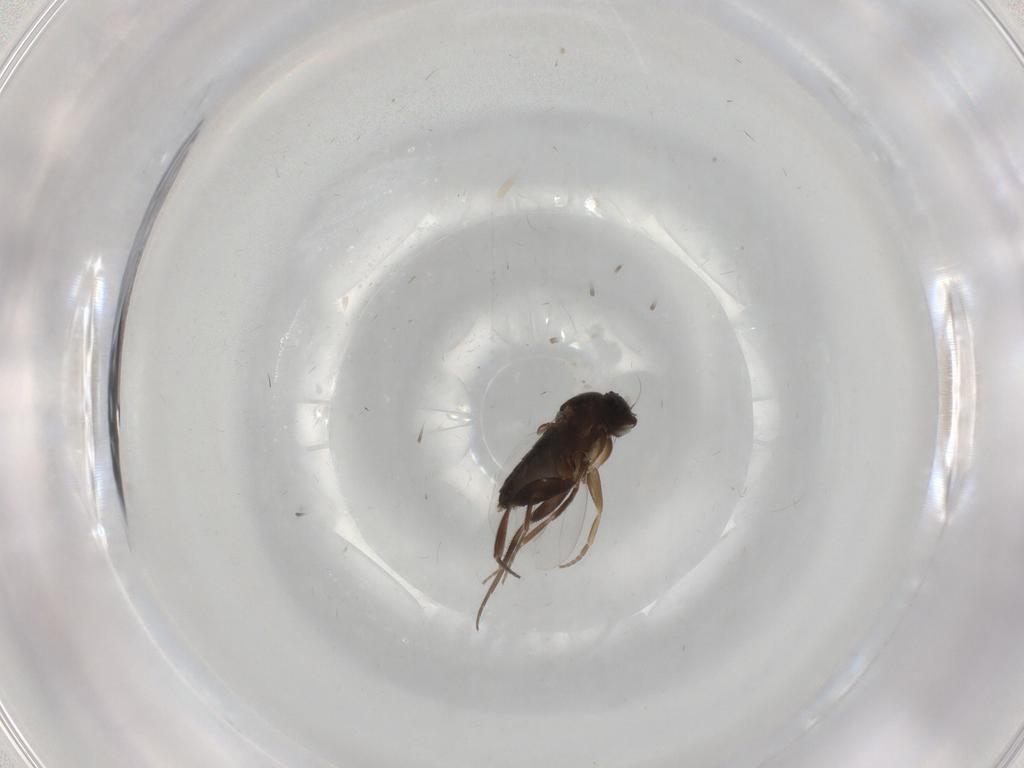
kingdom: Animalia
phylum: Arthropoda
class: Insecta
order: Diptera
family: Phoridae
